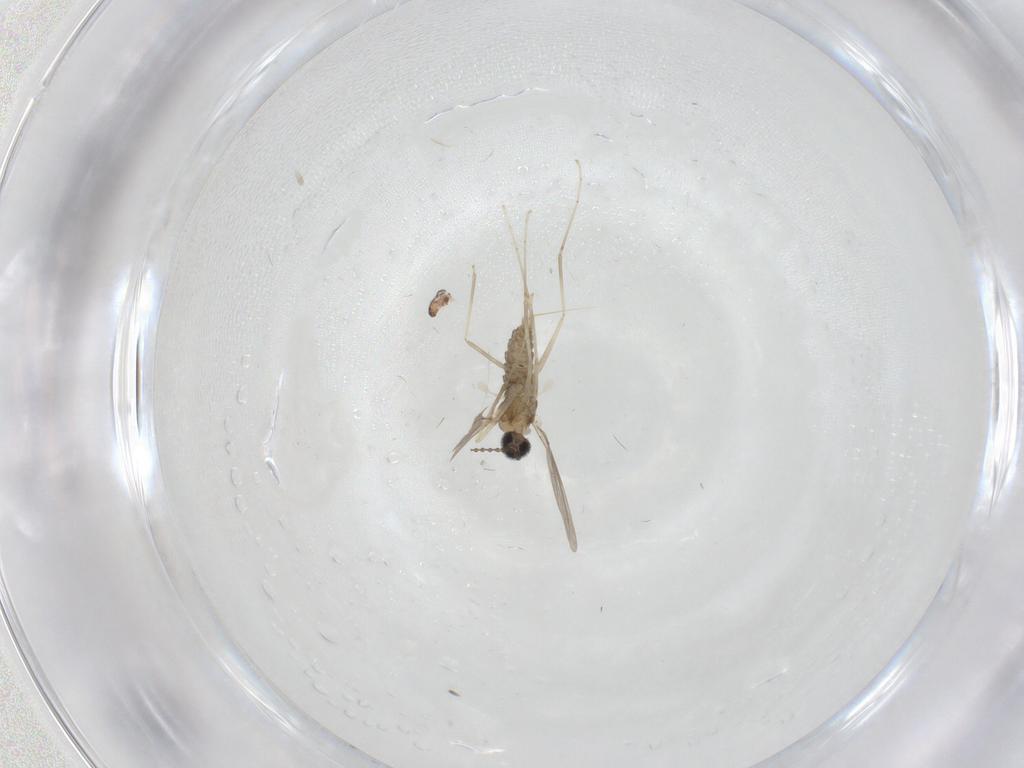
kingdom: Animalia
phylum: Arthropoda
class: Insecta
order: Diptera
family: Cecidomyiidae
